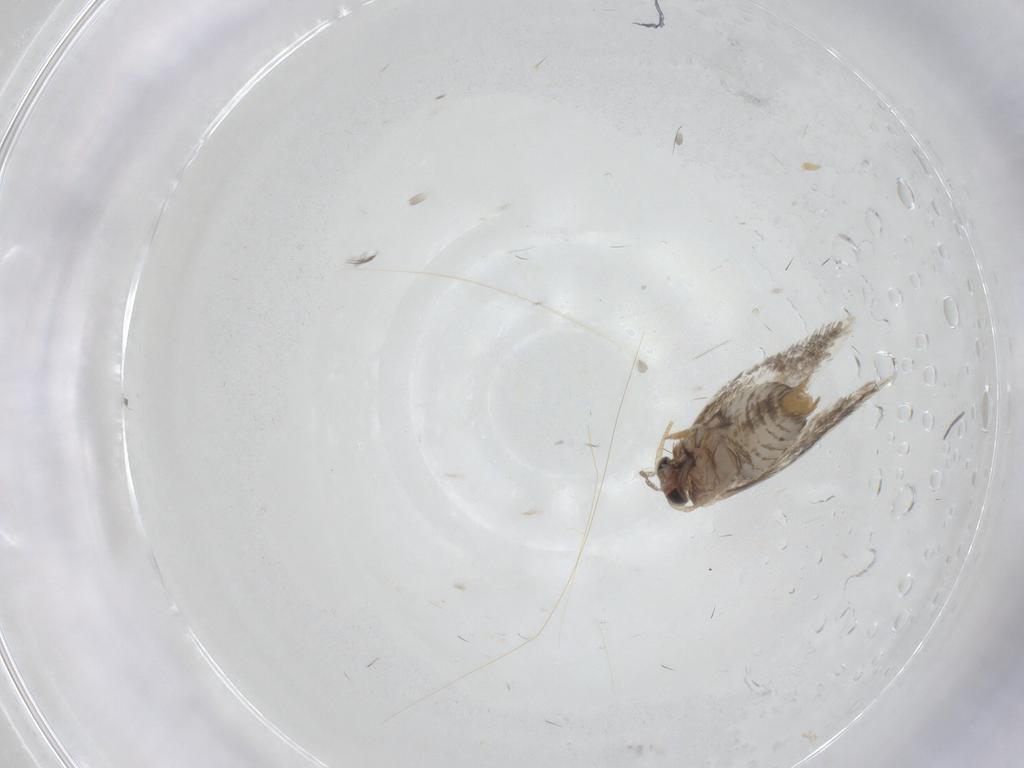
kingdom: Animalia
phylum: Arthropoda
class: Insecta
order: Lepidoptera
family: Nepticulidae
